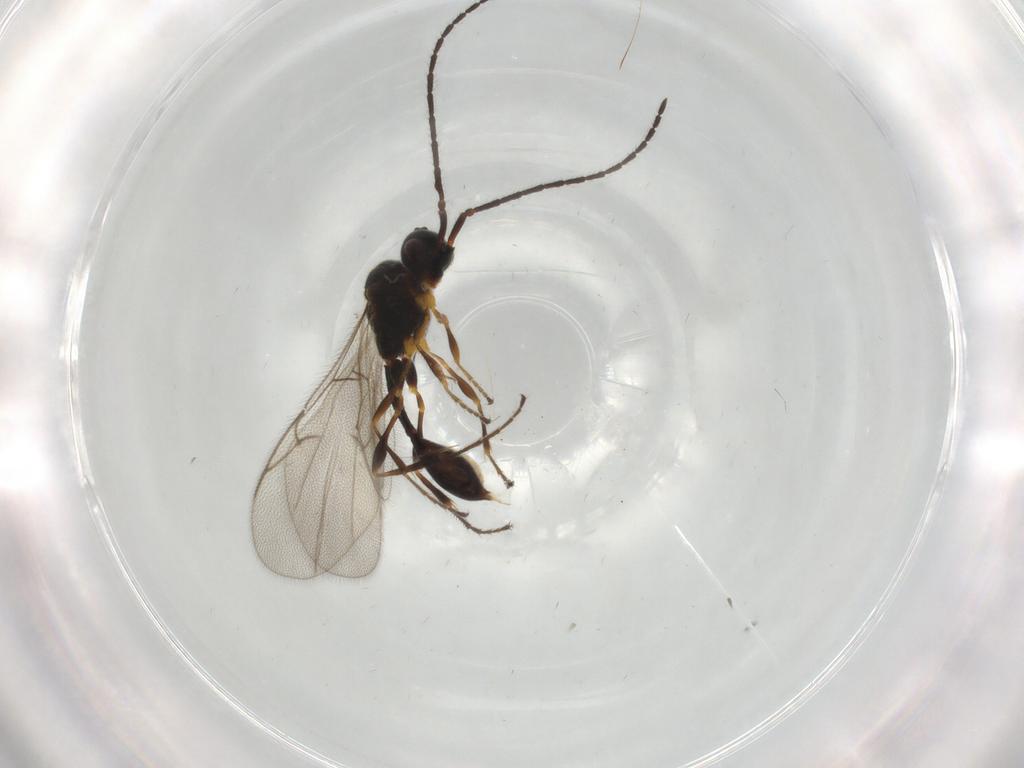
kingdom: Animalia
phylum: Arthropoda
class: Insecta
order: Hymenoptera
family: Diapriidae
